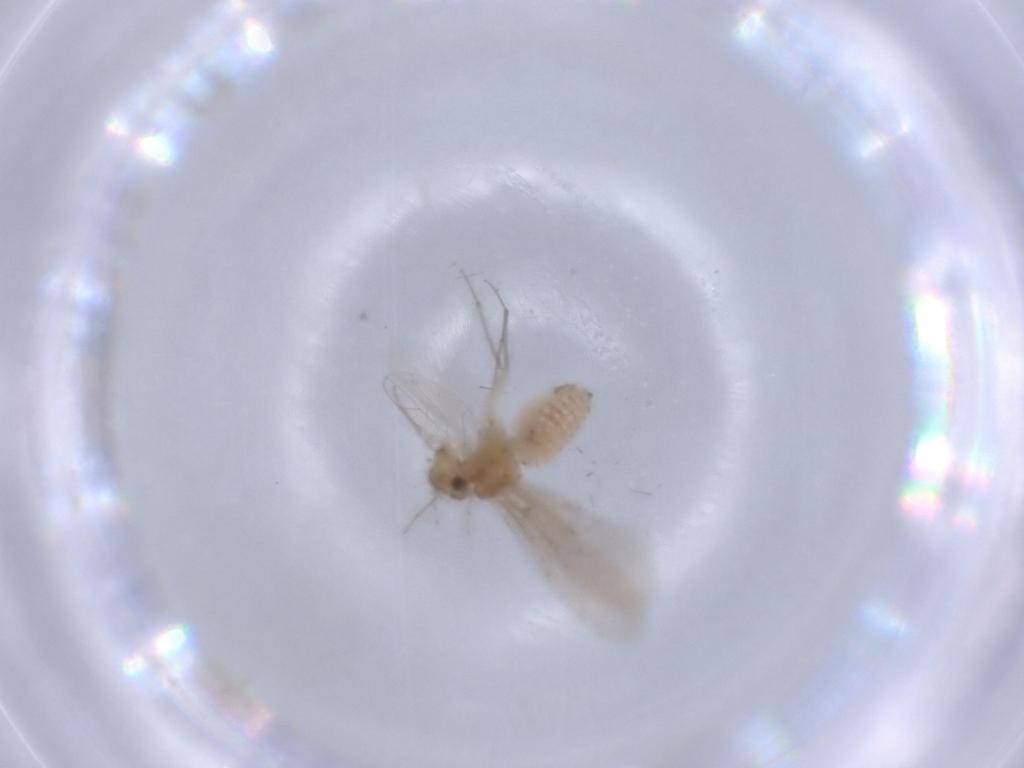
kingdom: Animalia
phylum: Arthropoda
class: Insecta
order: Psocodea
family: Lachesillidae
